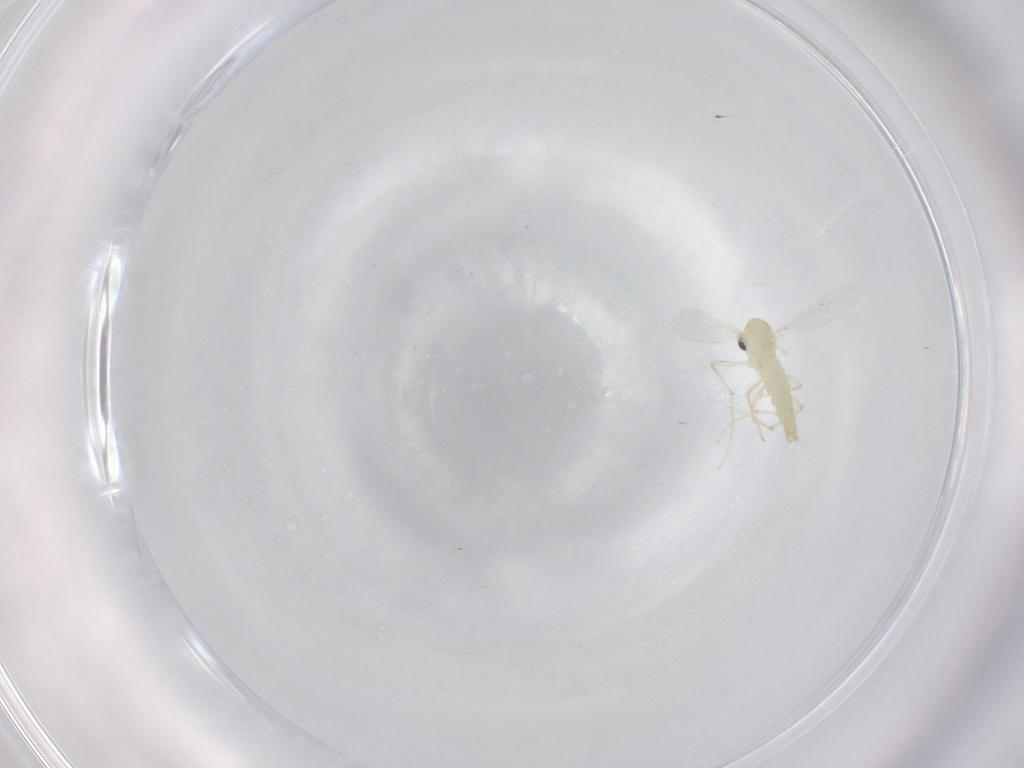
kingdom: Animalia
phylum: Arthropoda
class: Insecta
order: Diptera
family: Chironomidae
